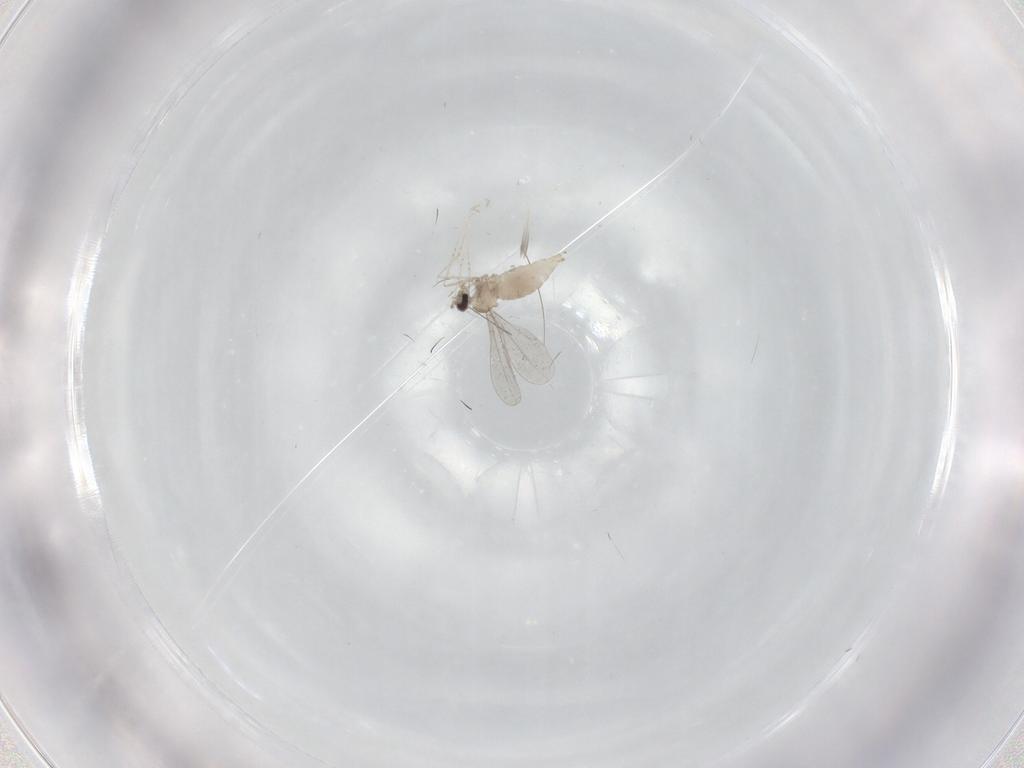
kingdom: Animalia
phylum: Arthropoda
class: Insecta
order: Diptera
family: Cecidomyiidae
